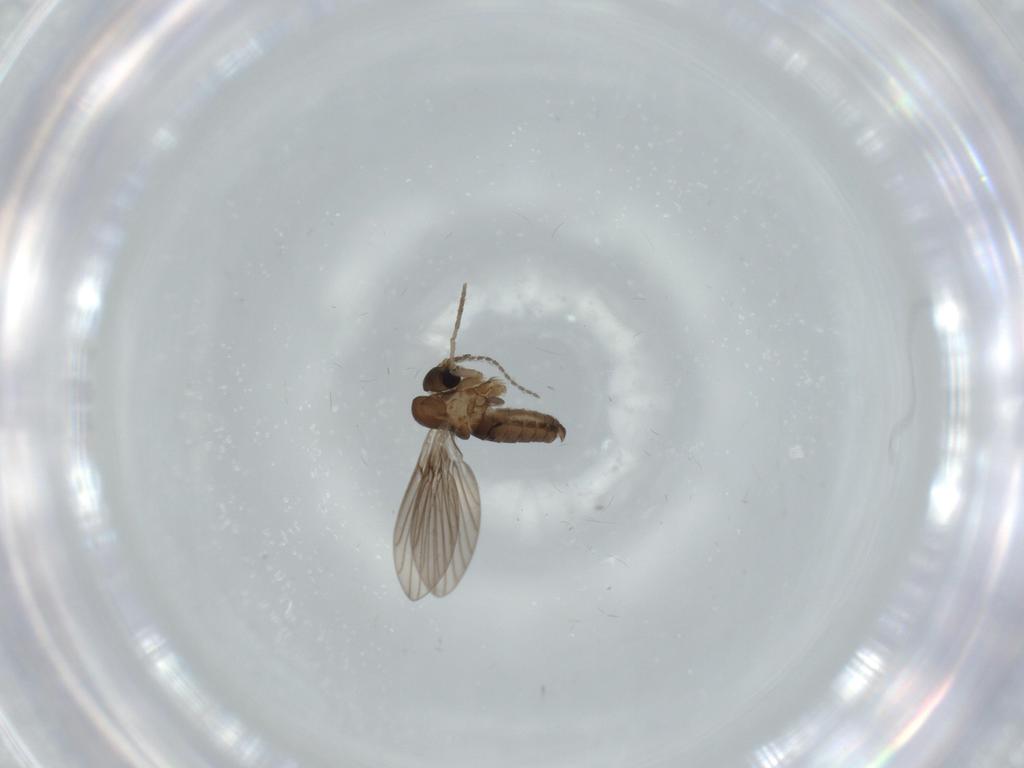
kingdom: Animalia
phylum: Arthropoda
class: Insecta
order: Diptera
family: Psychodidae
